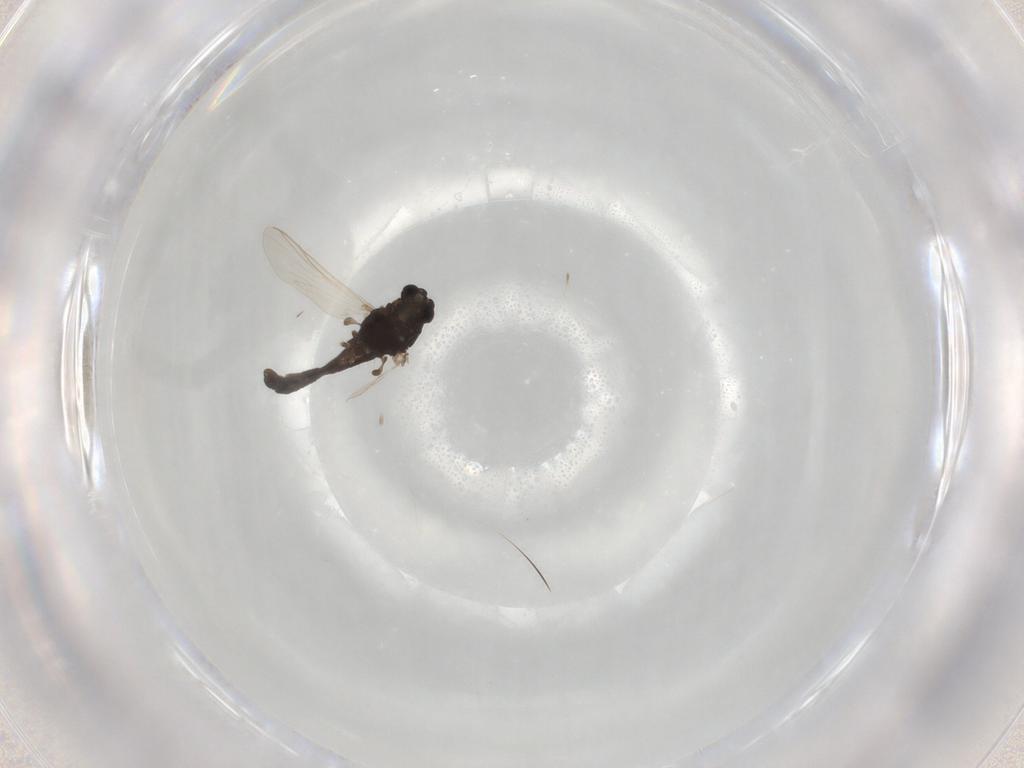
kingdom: Animalia
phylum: Arthropoda
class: Insecta
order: Diptera
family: Chironomidae
